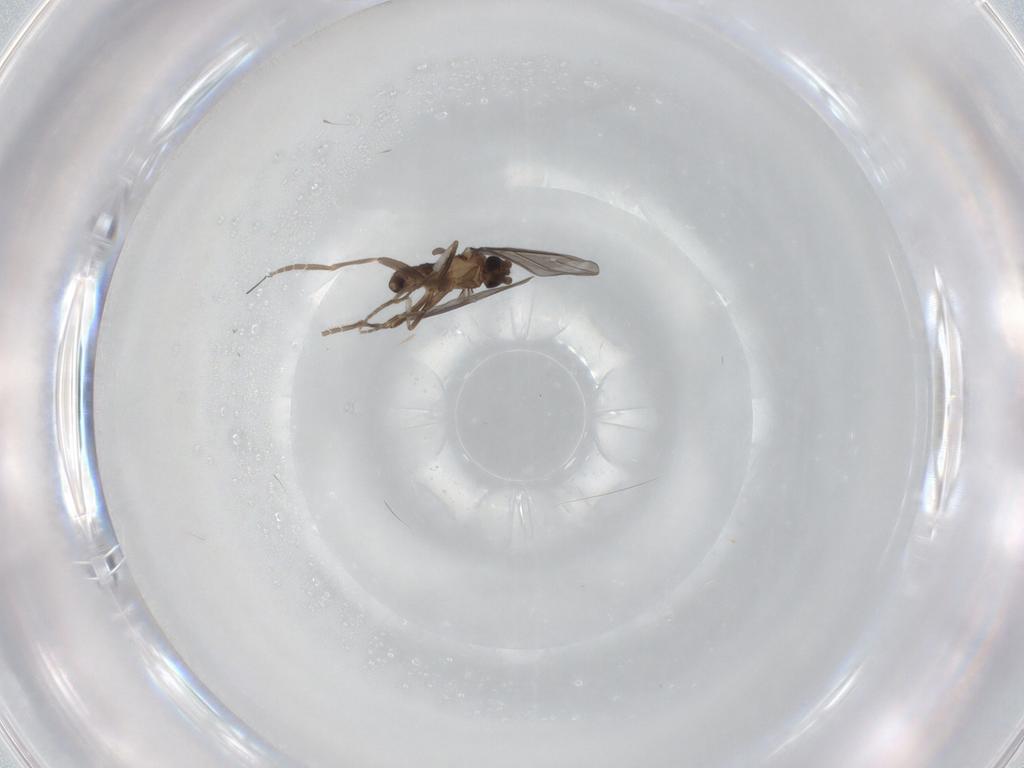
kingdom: Animalia
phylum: Arthropoda
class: Insecta
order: Diptera
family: Phoridae
